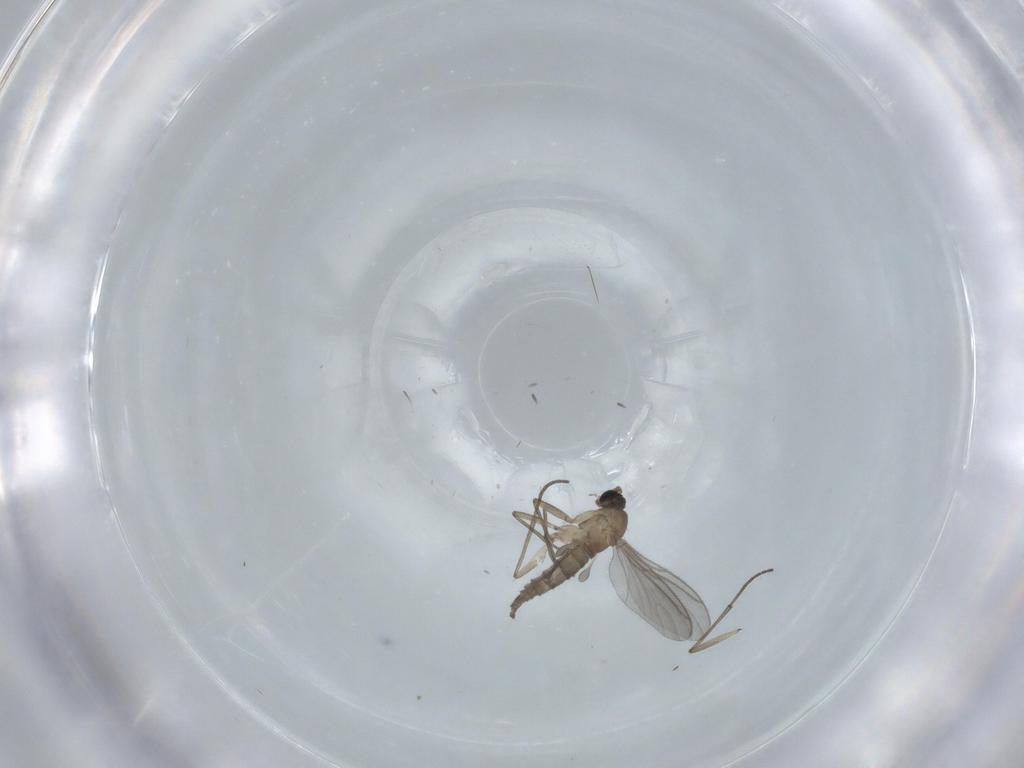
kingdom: Animalia
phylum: Arthropoda
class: Insecta
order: Diptera
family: Sciaridae
